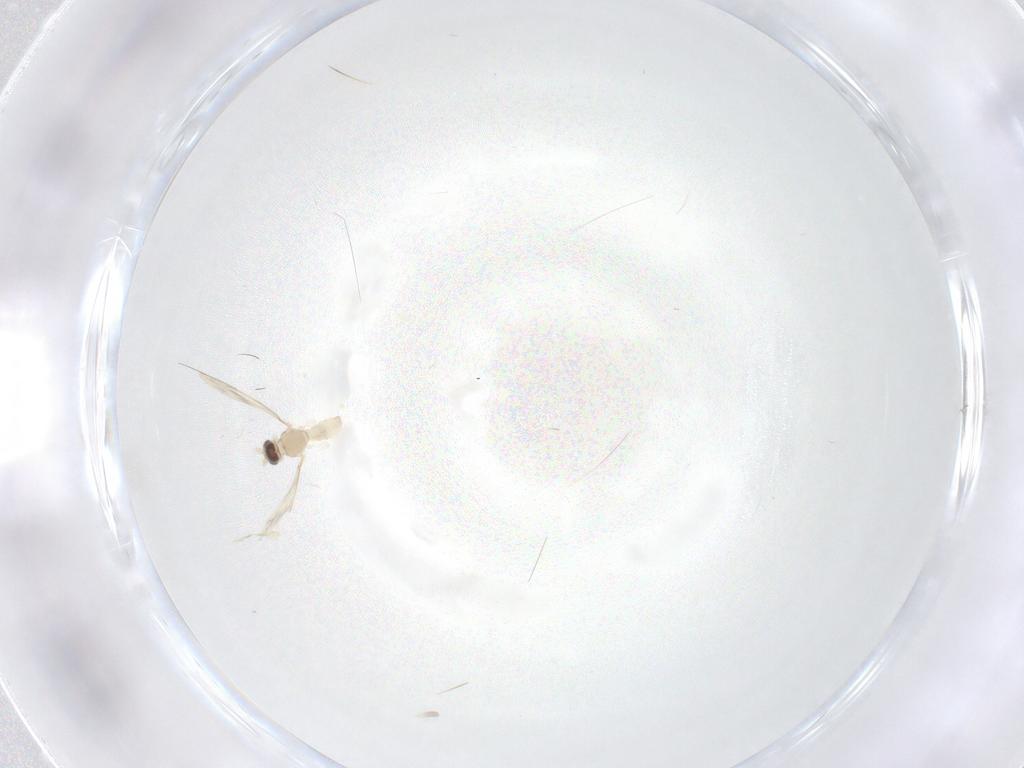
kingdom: Animalia
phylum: Arthropoda
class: Insecta
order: Diptera
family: Cecidomyiidae
